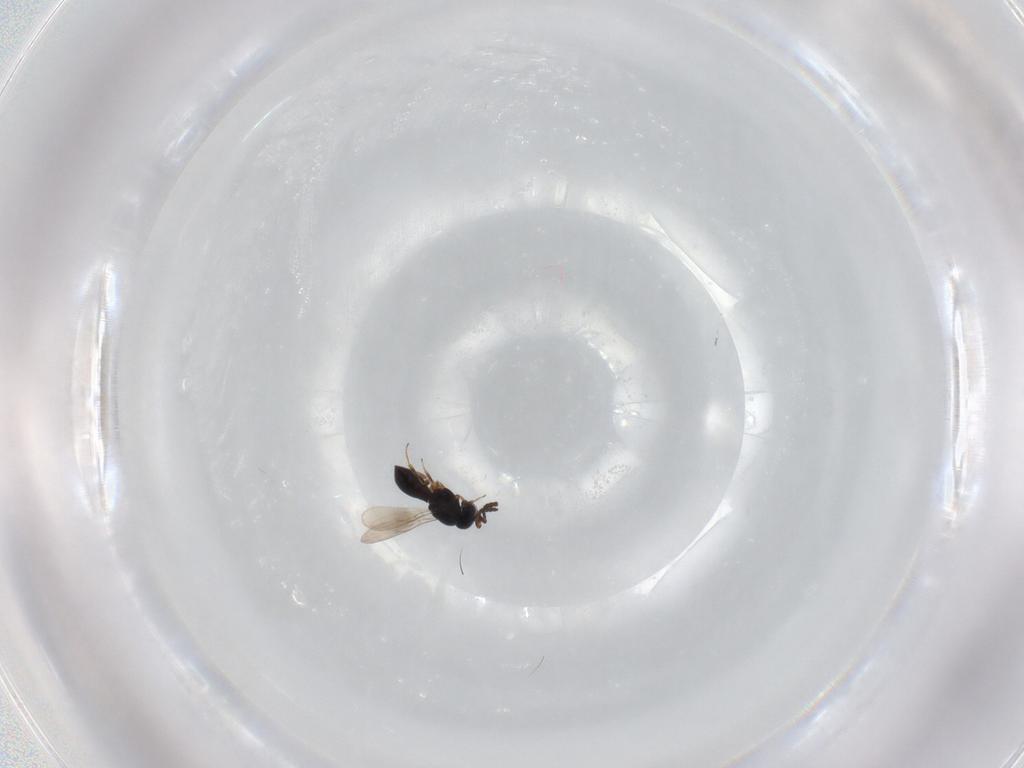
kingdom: Animalia
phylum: Arthropoda
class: Insecta
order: Hymenoptera
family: Scelionidae
